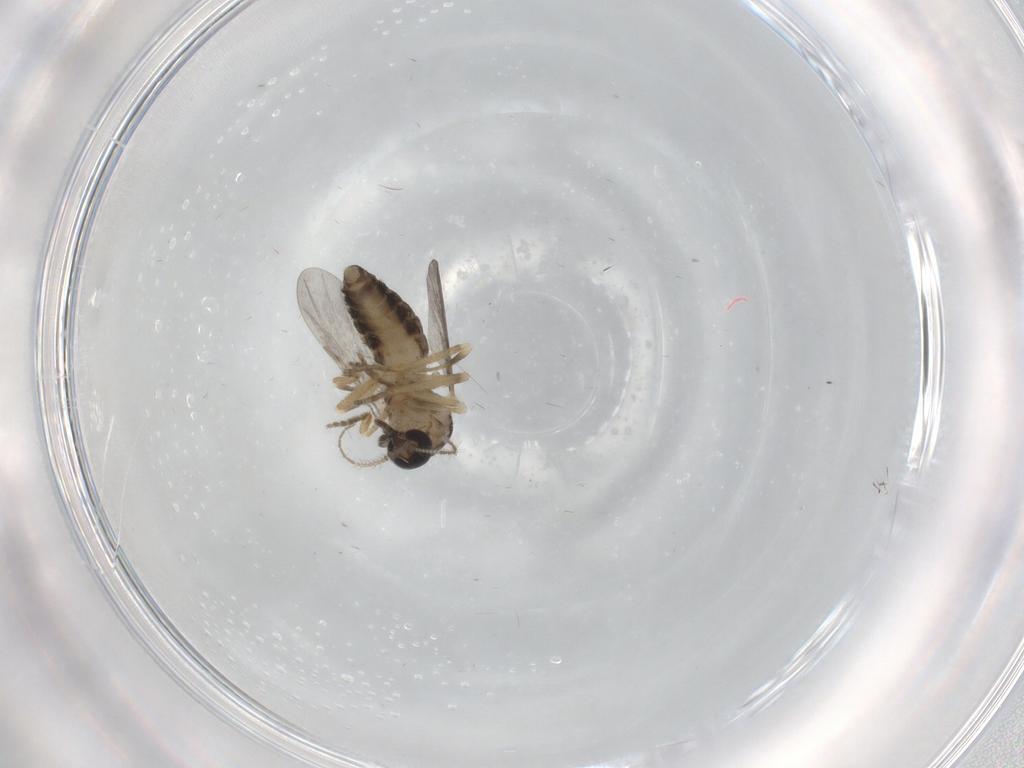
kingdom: Animalia
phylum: Arthropoda
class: Insecta
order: Diptera
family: Ceratopogonidae
